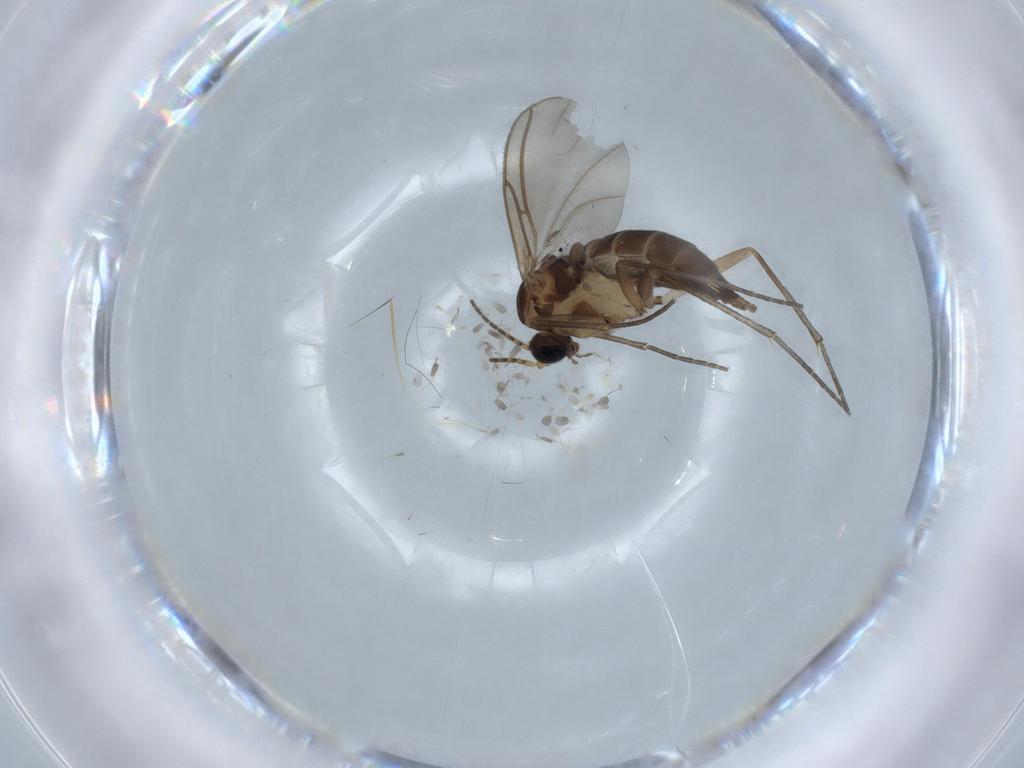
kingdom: Animalia
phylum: Arthropoda
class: Insecta
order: Diptera
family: Sciaridae
